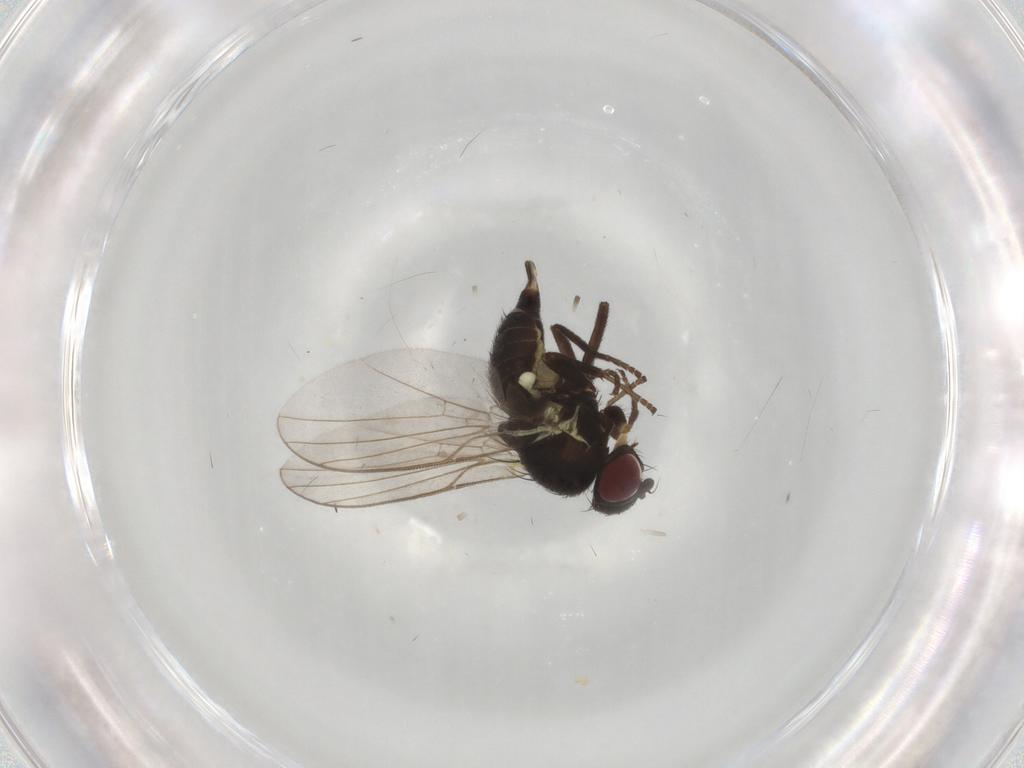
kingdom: Animalia
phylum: Arthropoda
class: Insecta
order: Diptera
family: Agromyzidae
